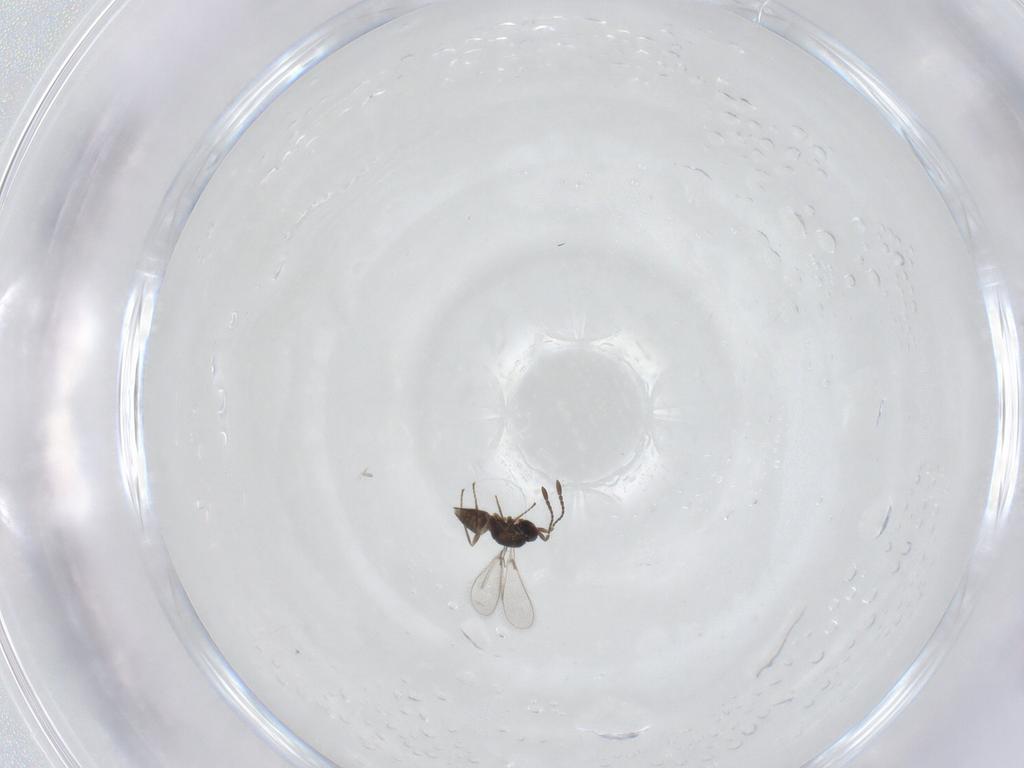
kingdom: Animalia
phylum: Arthropoda
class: Insecta
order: Hymenoptera
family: Mymaridae
